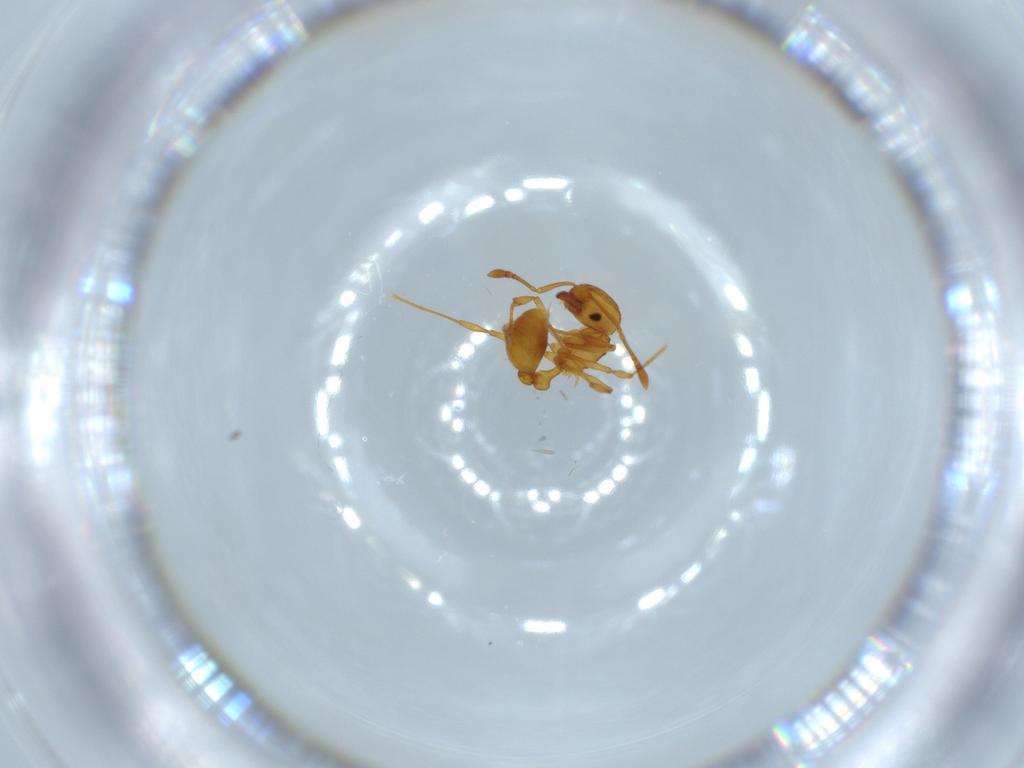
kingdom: Animalia
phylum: Arthropoda
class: Insecta
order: Hymenoptera
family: Formicidae
